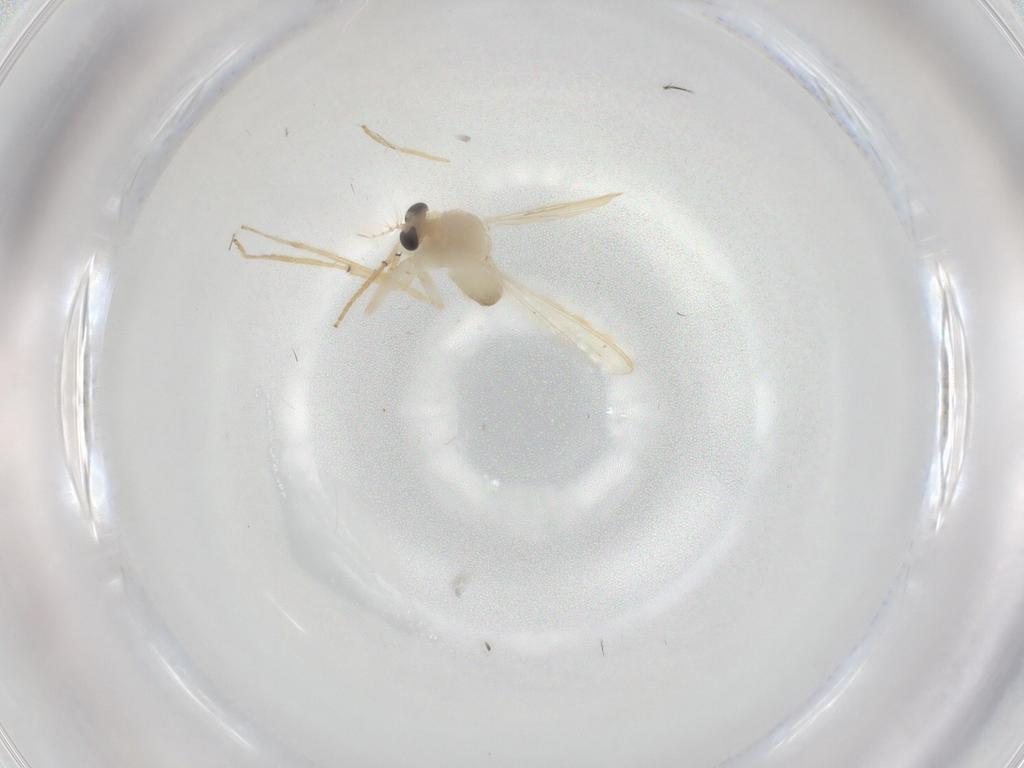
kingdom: Animalia
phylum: Arthropoda
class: Insecta
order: Diptera
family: Chironomidae
